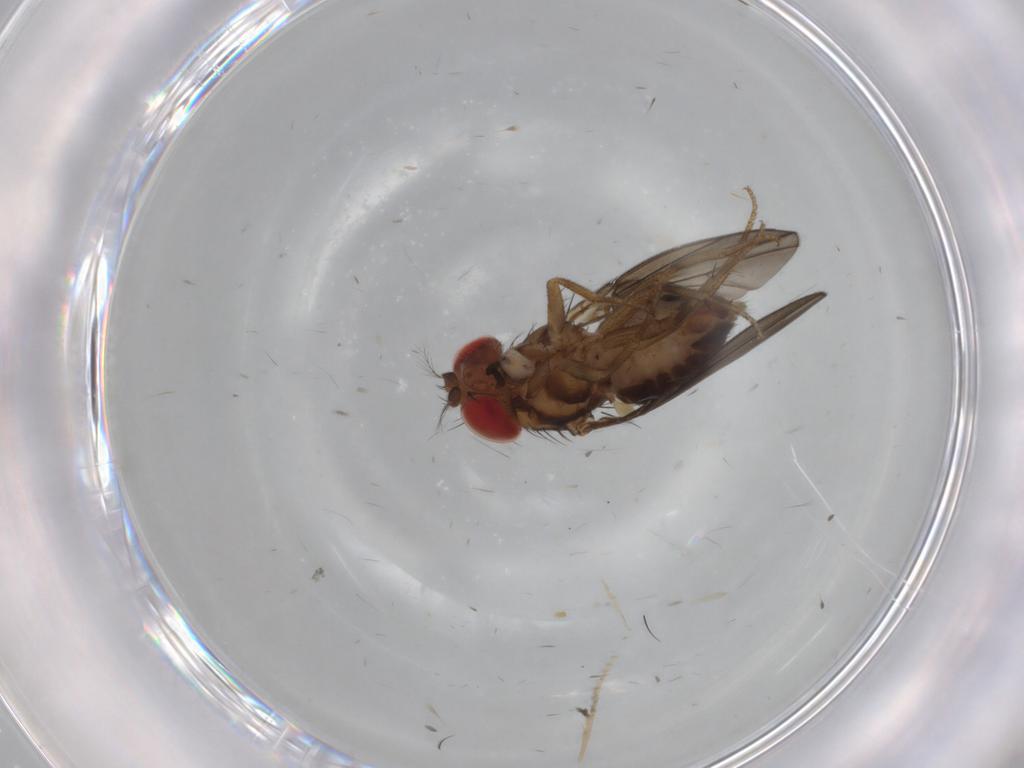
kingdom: Animalia
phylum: Arthropoda
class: Insecta
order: Diptera
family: Drosophilidae
